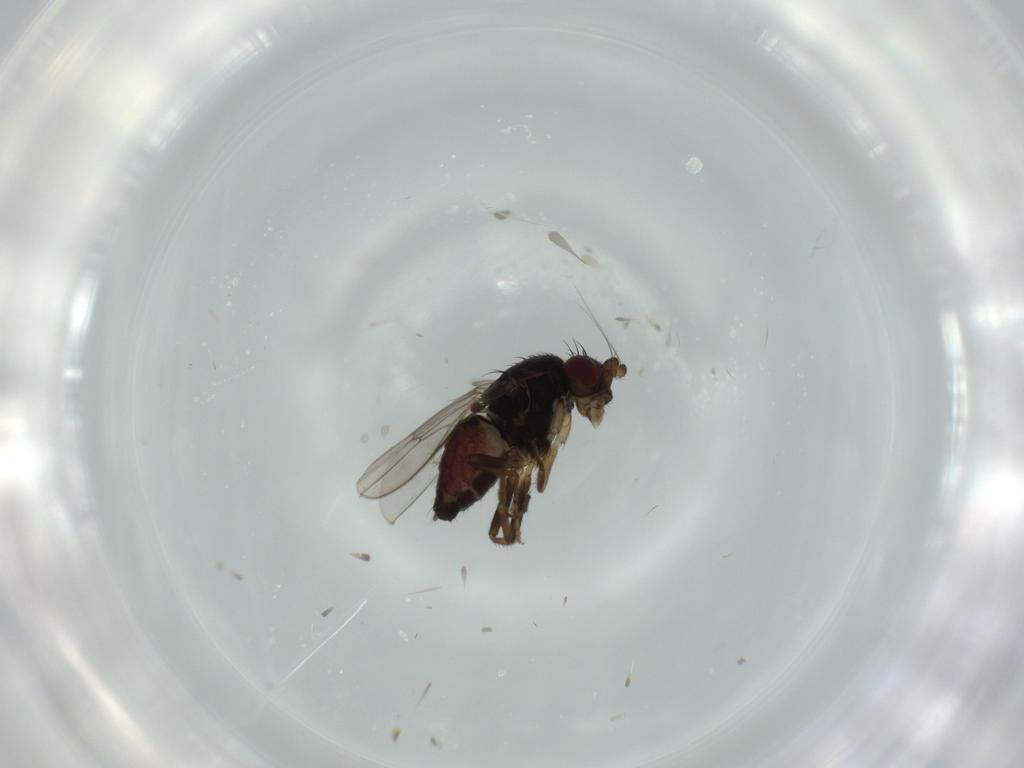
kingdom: Animalia
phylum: Arthropoda
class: Insecta
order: Diptera
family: Sphaeroceridae
